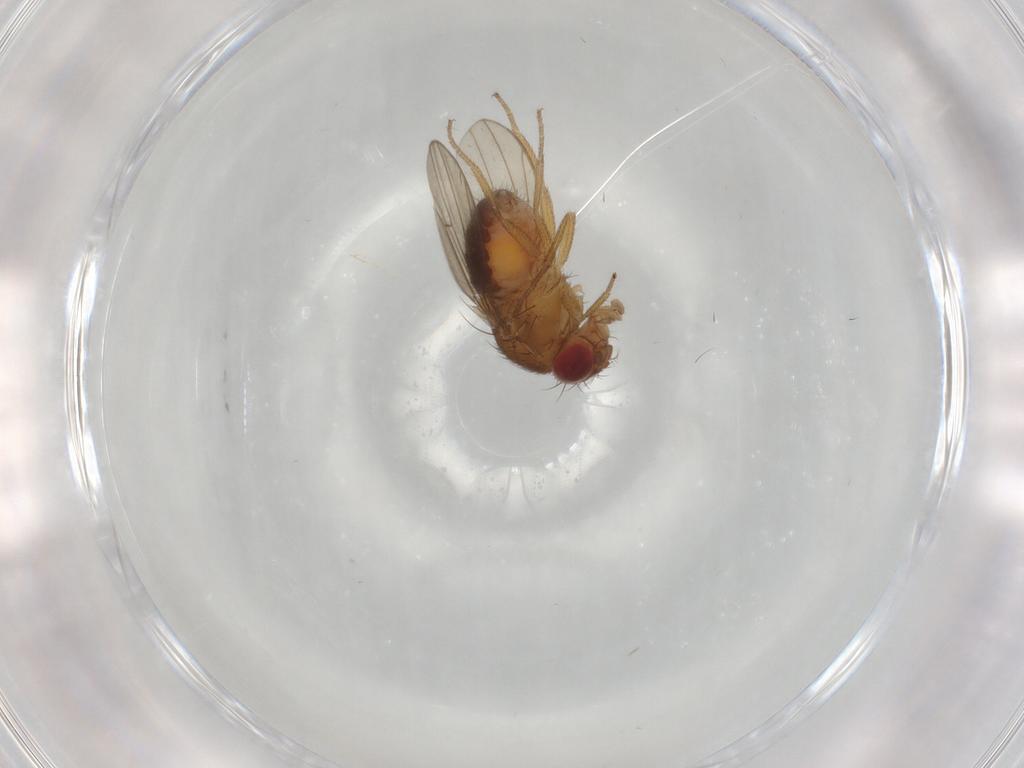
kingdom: Animalia
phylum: Arthropoda
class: Insecta
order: Diptera
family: Drosophilidae
